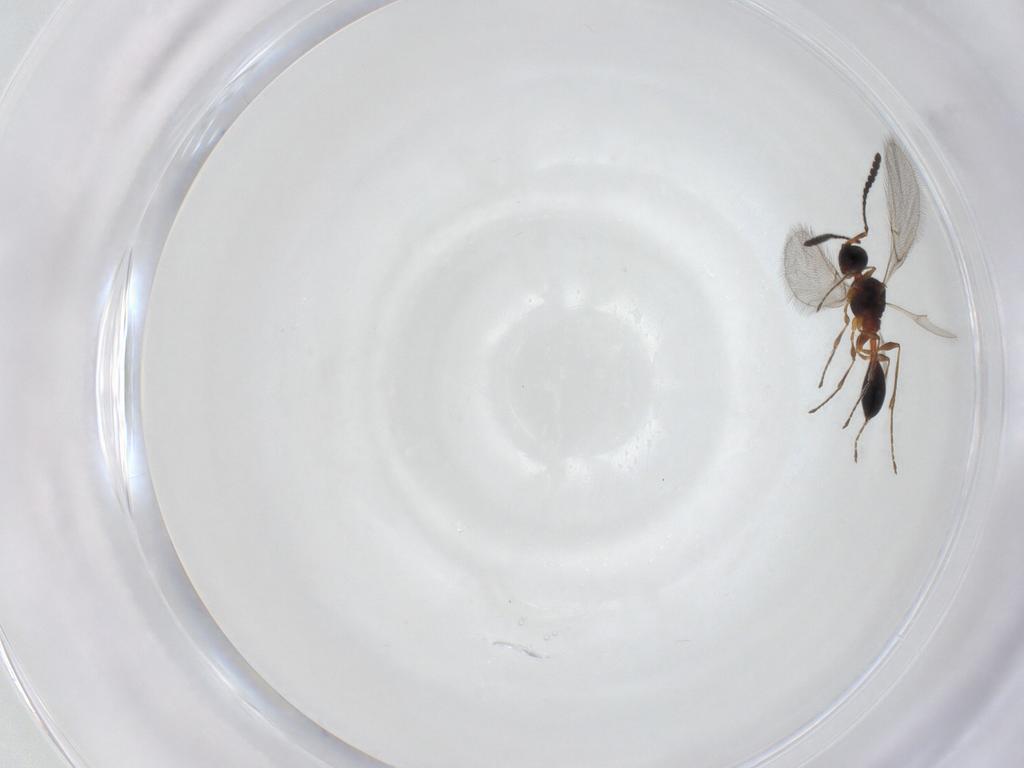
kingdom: Animalia
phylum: Arthropoda
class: Insecta
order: Hymenoptera
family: Diapriidae
